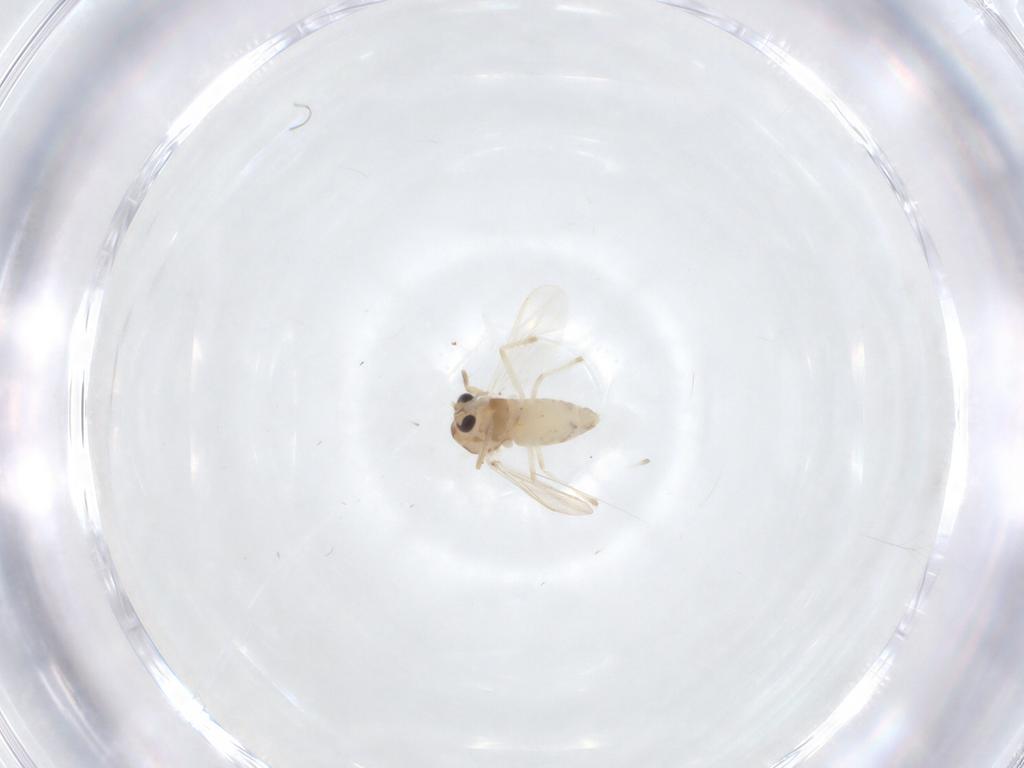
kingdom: Animalia
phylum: Arthropoda
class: Insecta
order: Diptera
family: Chironomidae
